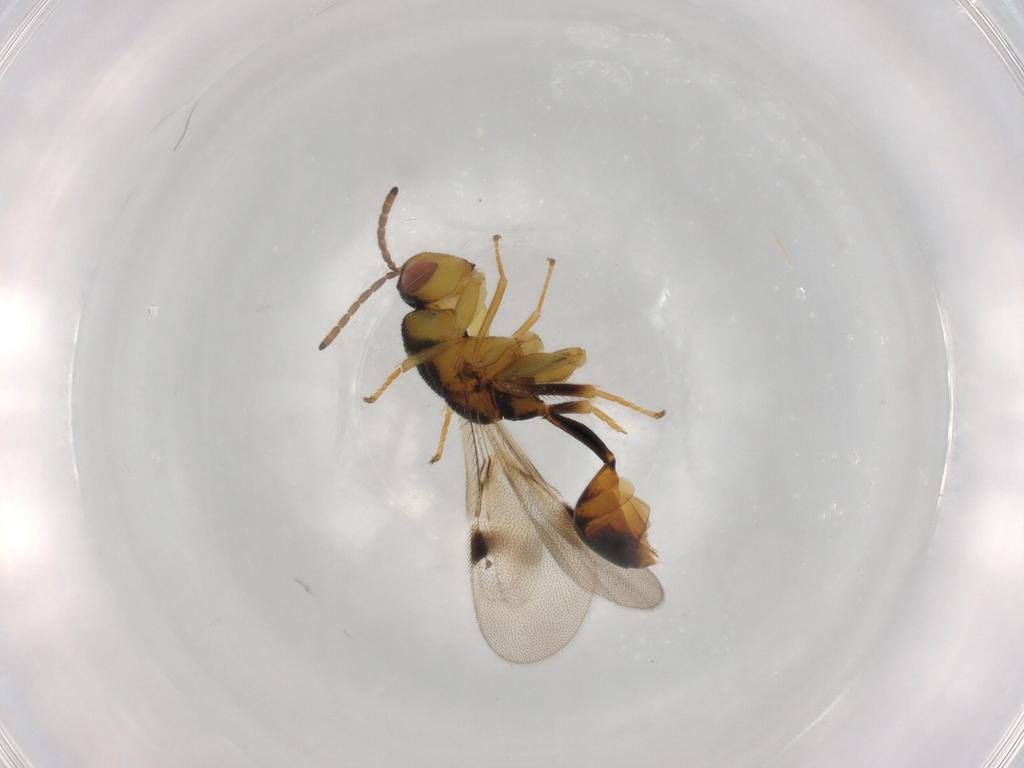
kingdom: Animalia
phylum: Arthropoda
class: Insecta
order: Hymenoptera
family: Eurytomidae
